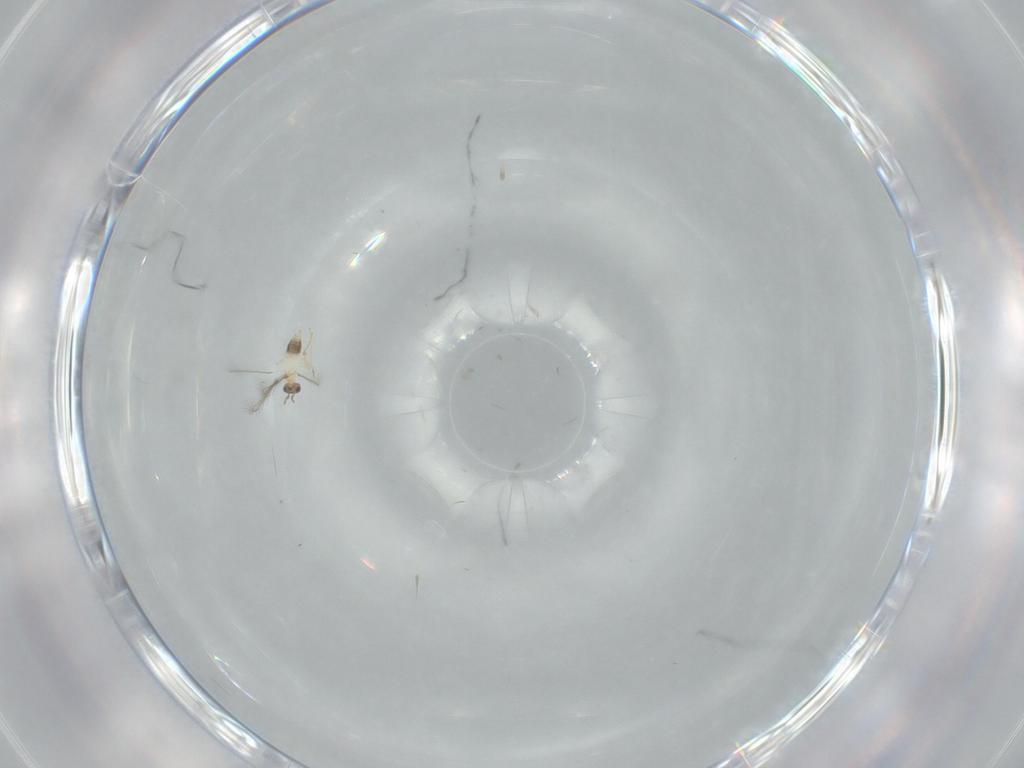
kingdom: Animalia
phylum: Arthropoda
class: Insecta
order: Hymenoptera
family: Mymaridae
